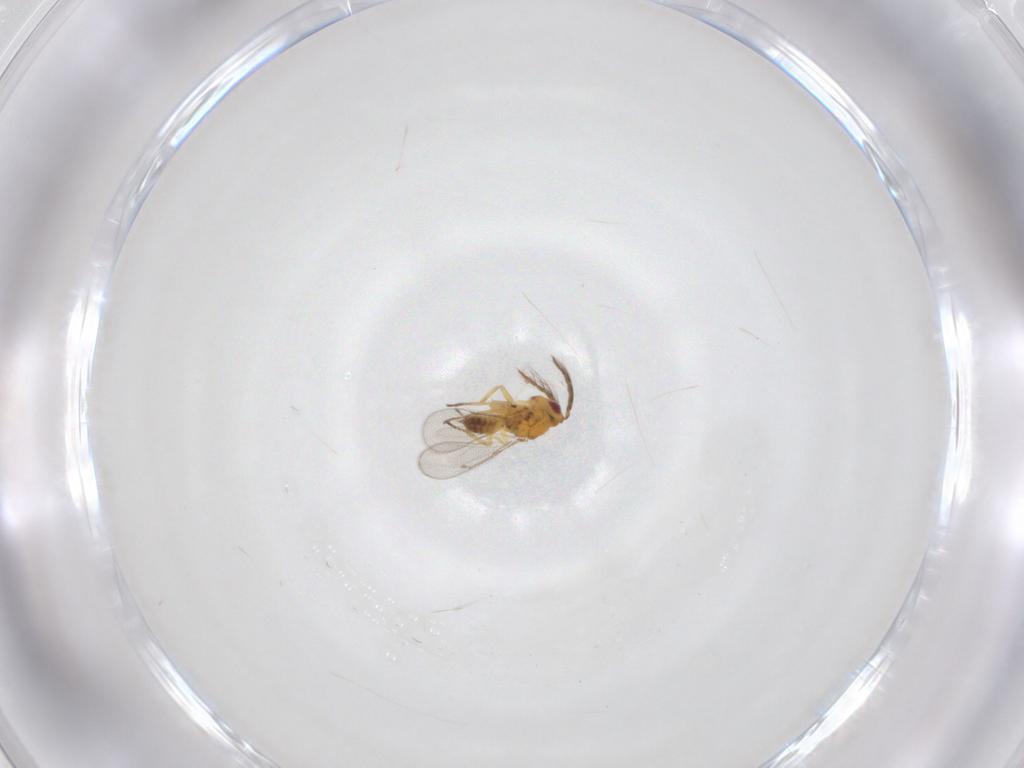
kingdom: Animalia
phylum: Arthropoda
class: Insecta
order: Hymenoptera
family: Eulophidae
